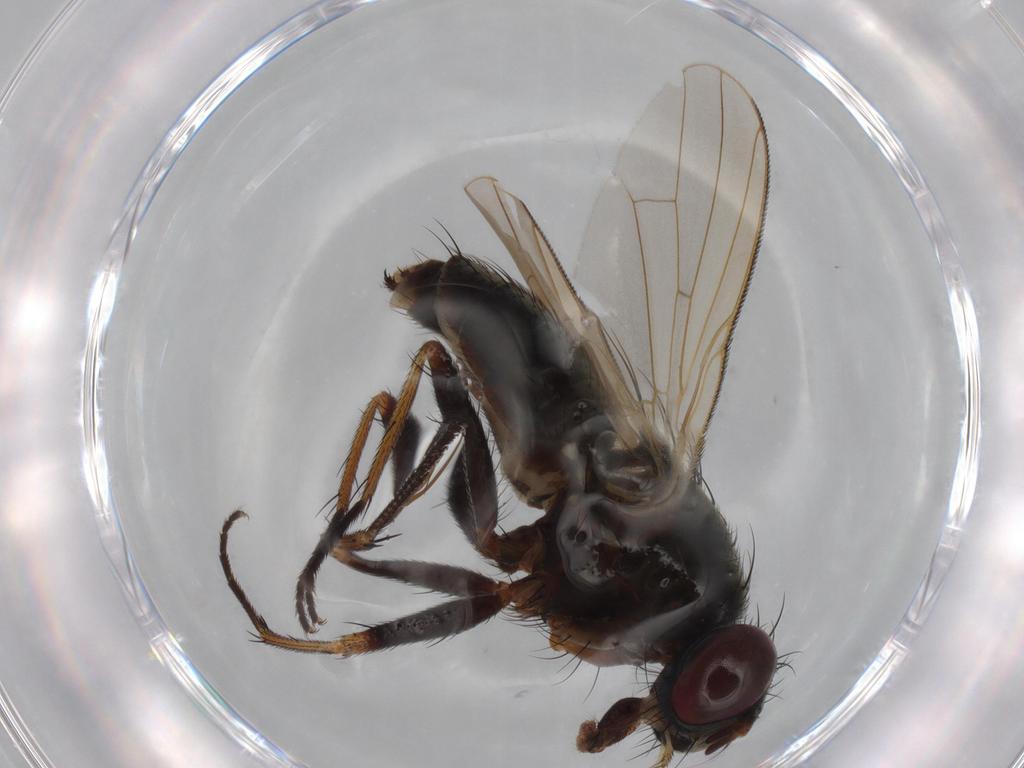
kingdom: Animalia
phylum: Arthropoda
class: Insecta
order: Diptera
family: Muscidae
